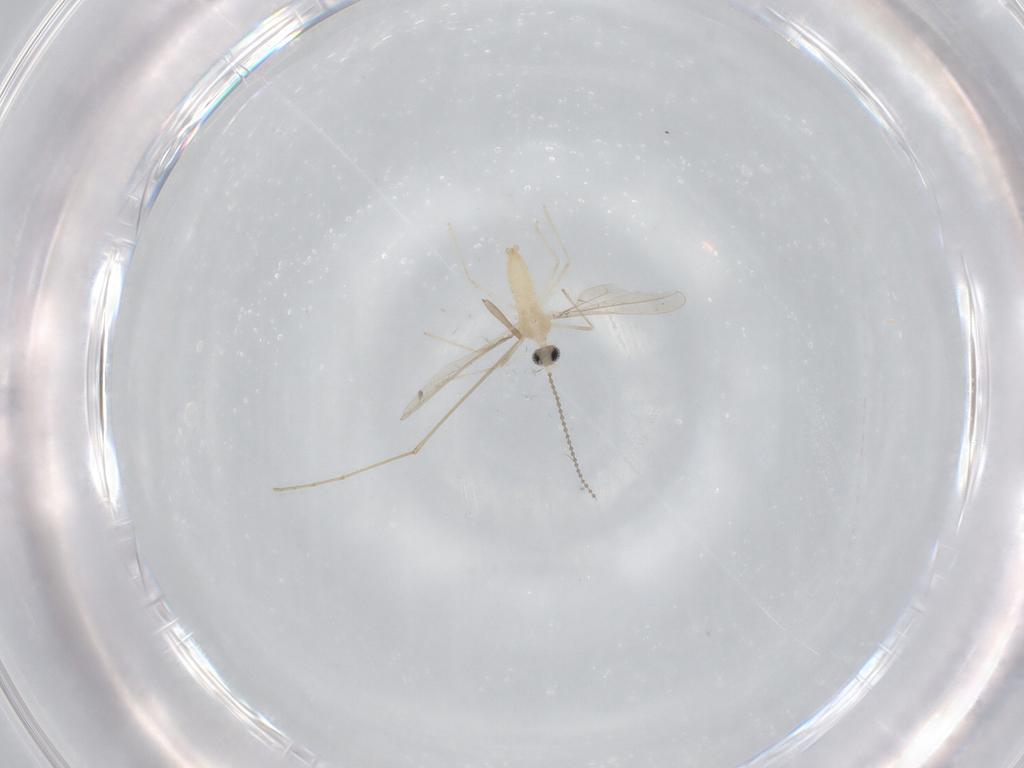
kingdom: Animalia
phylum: Arthropoda
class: Insecta
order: Diptera
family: Psychodidae
